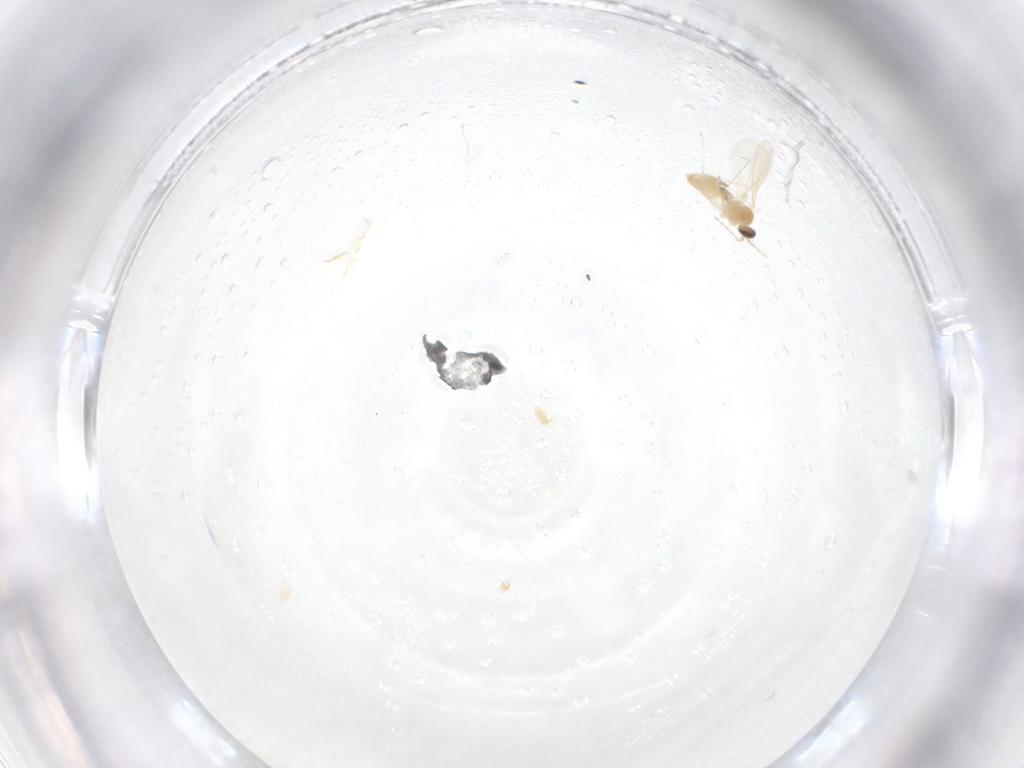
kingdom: Animalia
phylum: Arthropoda
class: Insecta
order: Diptera
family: Cecidomyiidae
